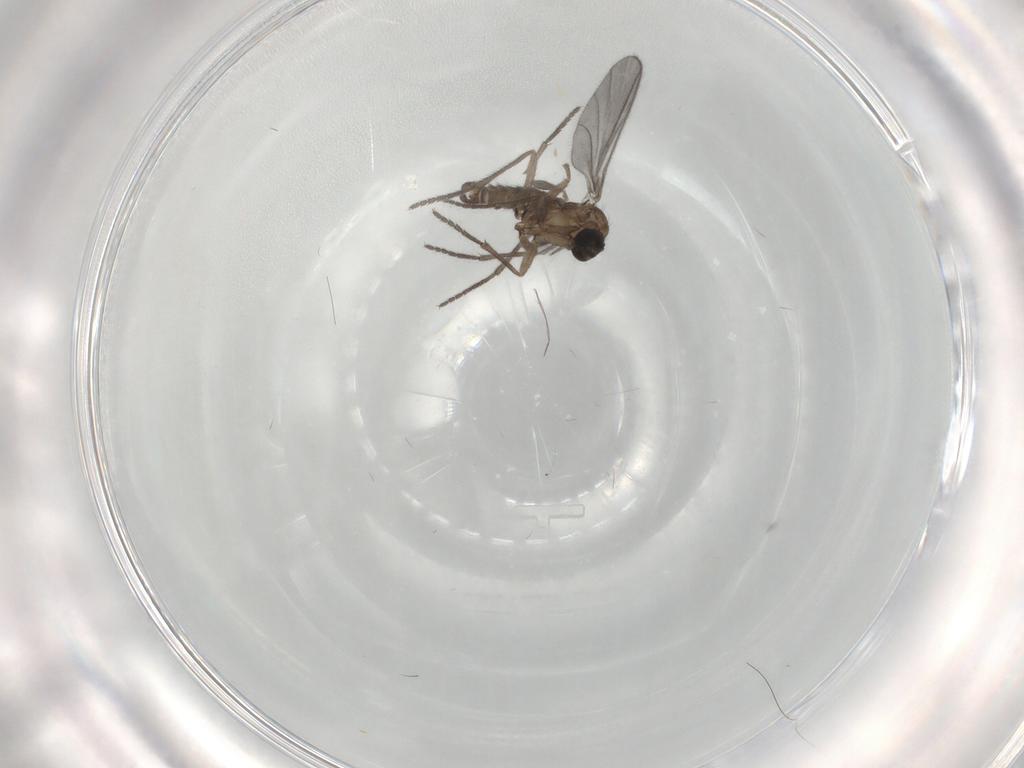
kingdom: Animalia
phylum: Arthropoda
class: Insecta
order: Diptera
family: Sciaridae
